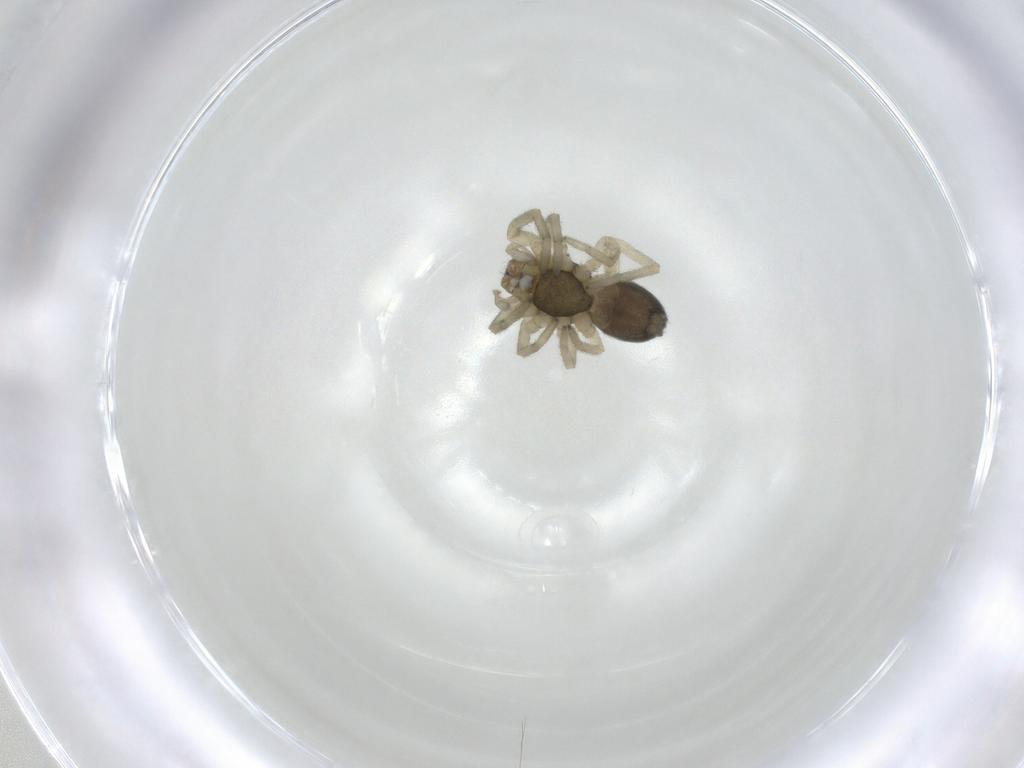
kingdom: Animalia
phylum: Arthropoda
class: Arachnida
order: Araneae
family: Trachelidae
